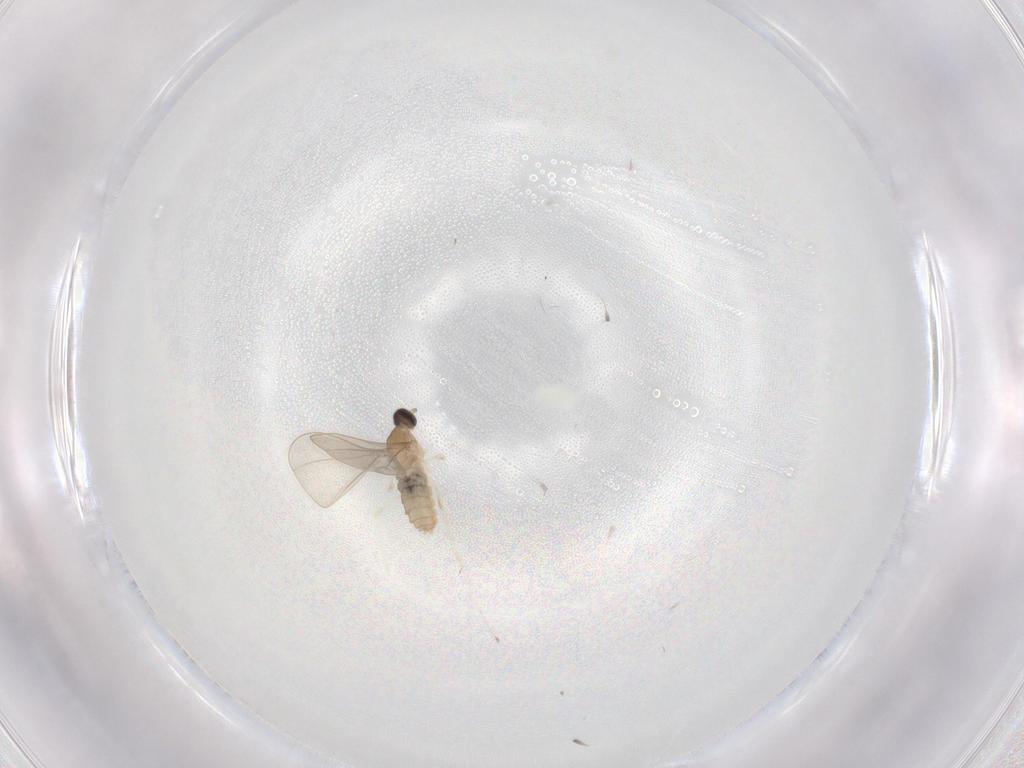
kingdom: Animalia
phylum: Arthropoda
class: Insecta
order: Diptera
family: Cecidomyiidae
